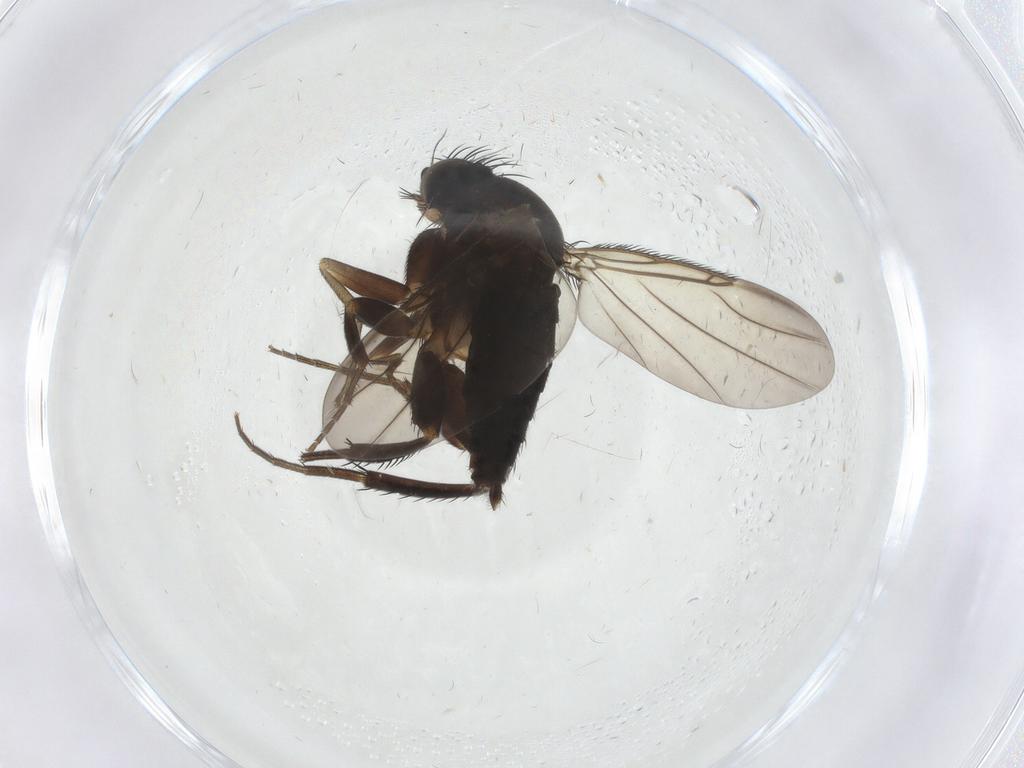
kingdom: Animalia
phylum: Arthropoda
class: Insecta
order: Diptera
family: Phoridae
